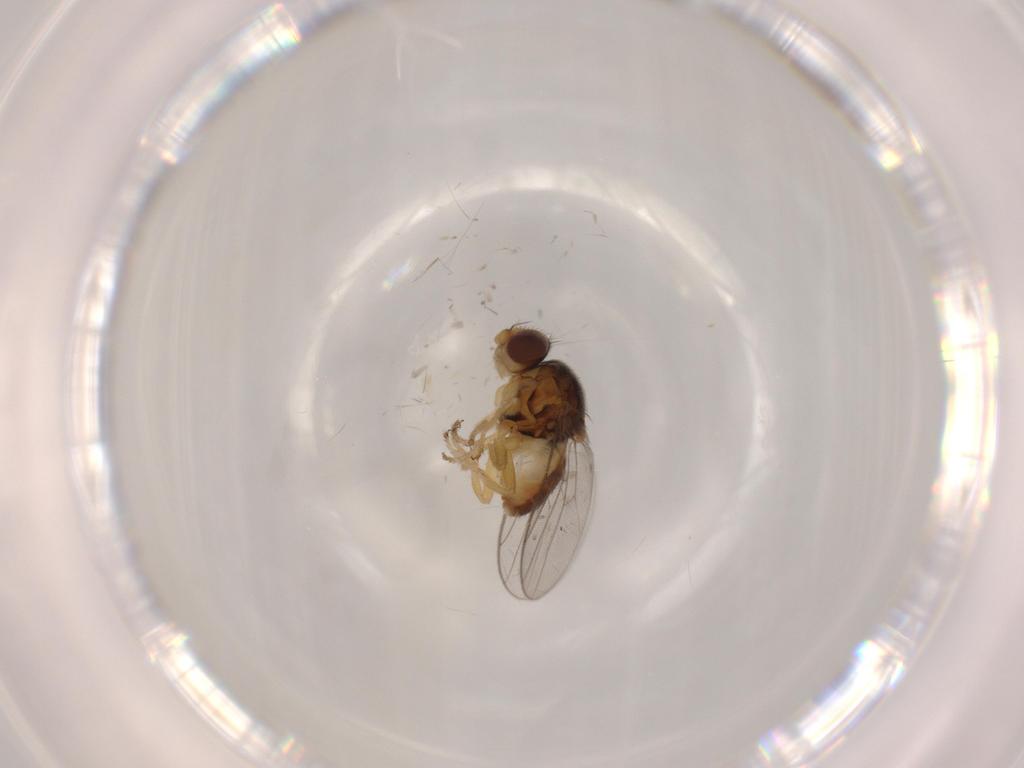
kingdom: Animalia
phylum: Arthropoda
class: Insecta
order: Diptera
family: Chloropidae
